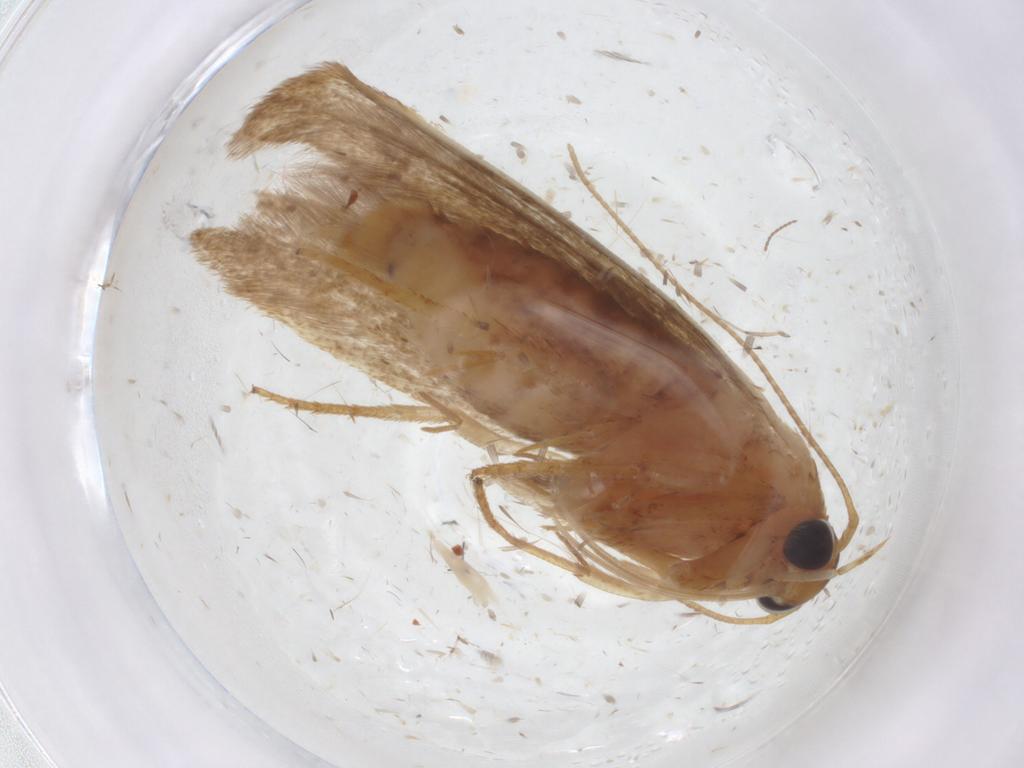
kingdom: Animalia
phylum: Arthropoda
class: Insecta
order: Lepidoptera
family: Blastobasidae
